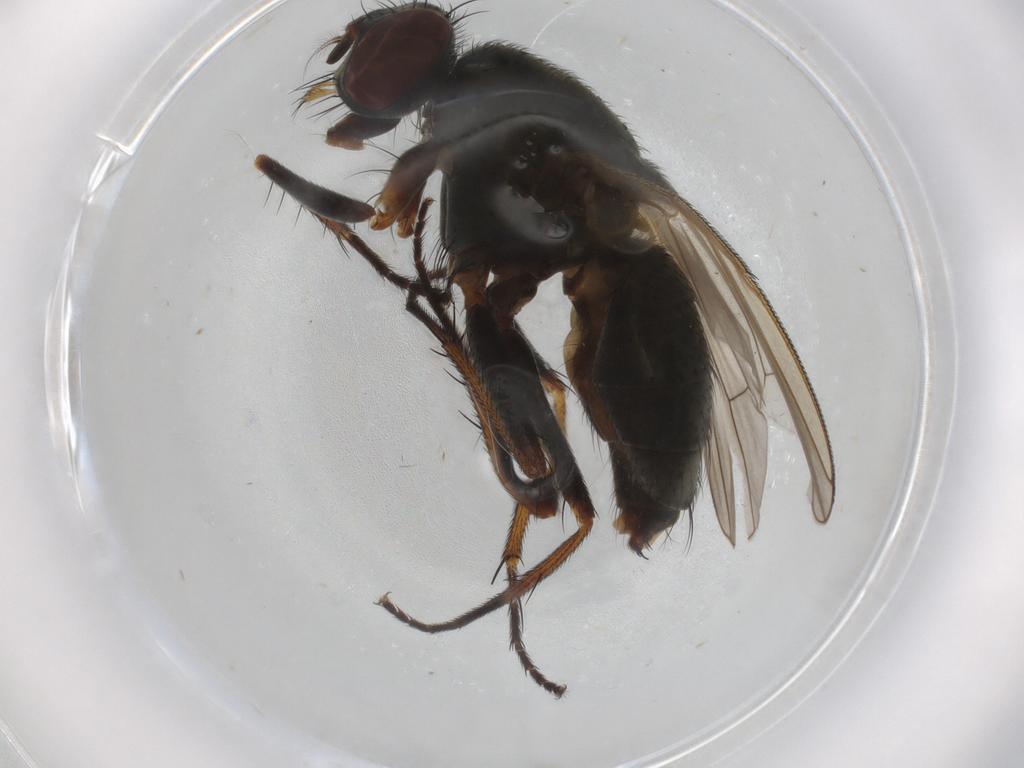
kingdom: Animalia
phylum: Arthropoda
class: Insecta
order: Diptera
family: Muscidae
